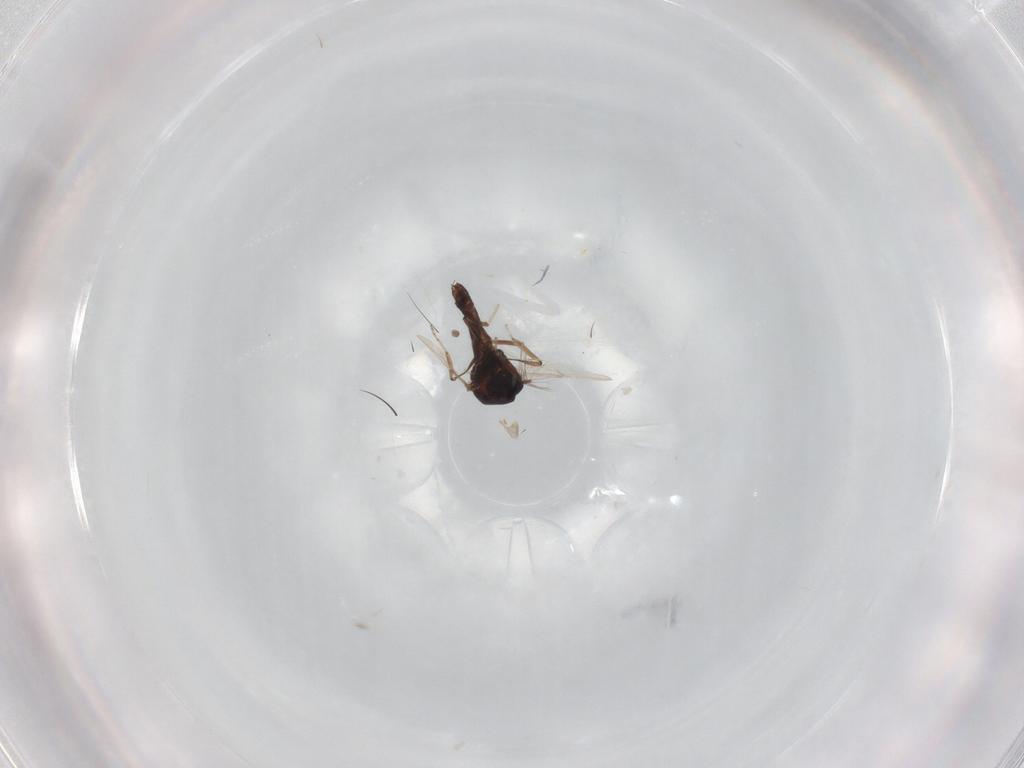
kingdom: Animalia
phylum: Arthropoda
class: Insecta
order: Diptera
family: Ceratopogonidae
